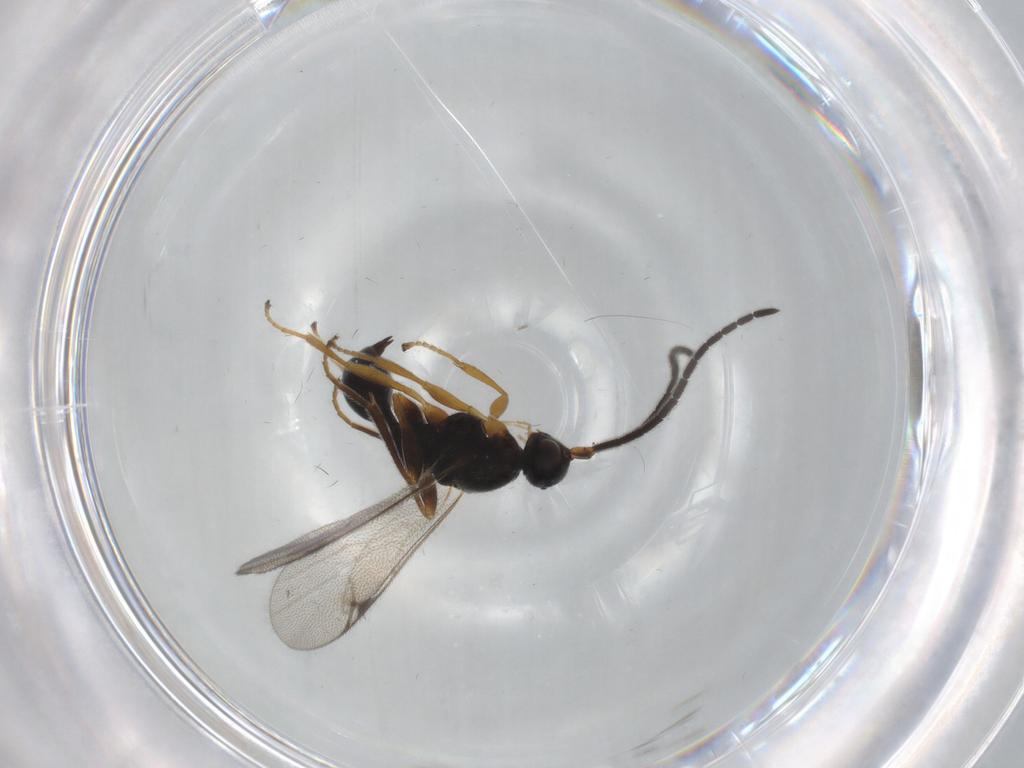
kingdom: Animalia
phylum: Arthropoda
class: Insecta
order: Hymenoptera
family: Proctotrupidae
